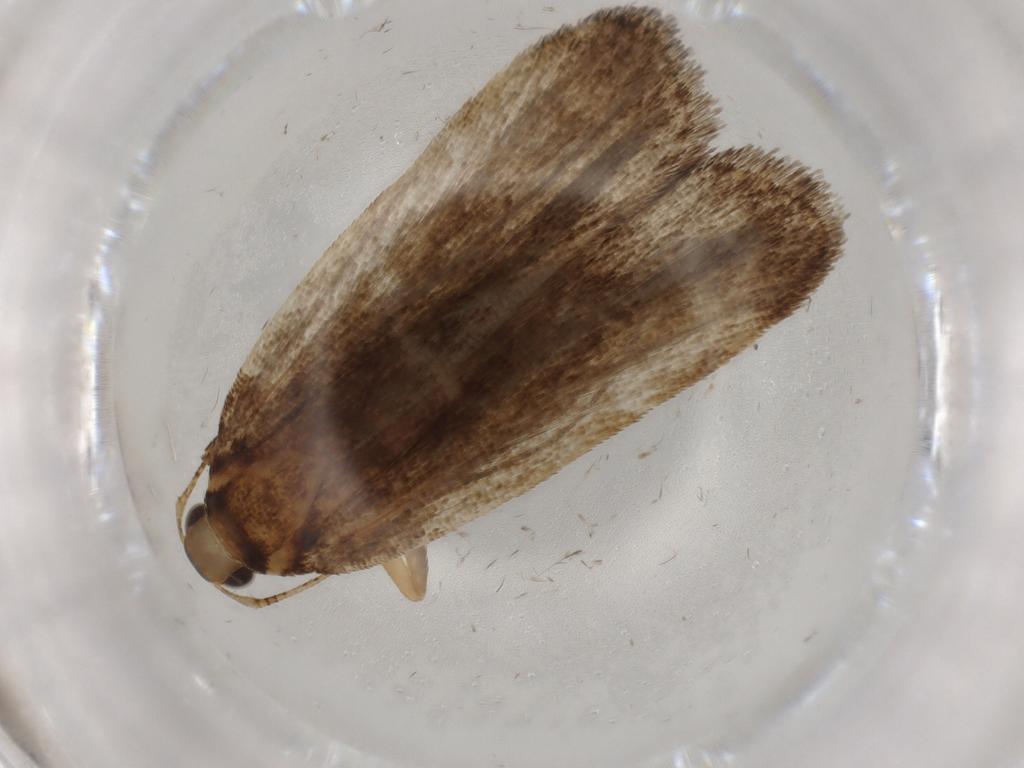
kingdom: Animalia
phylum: Arthropoda
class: Insecta
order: Lepidoptera
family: Gelechiidae
